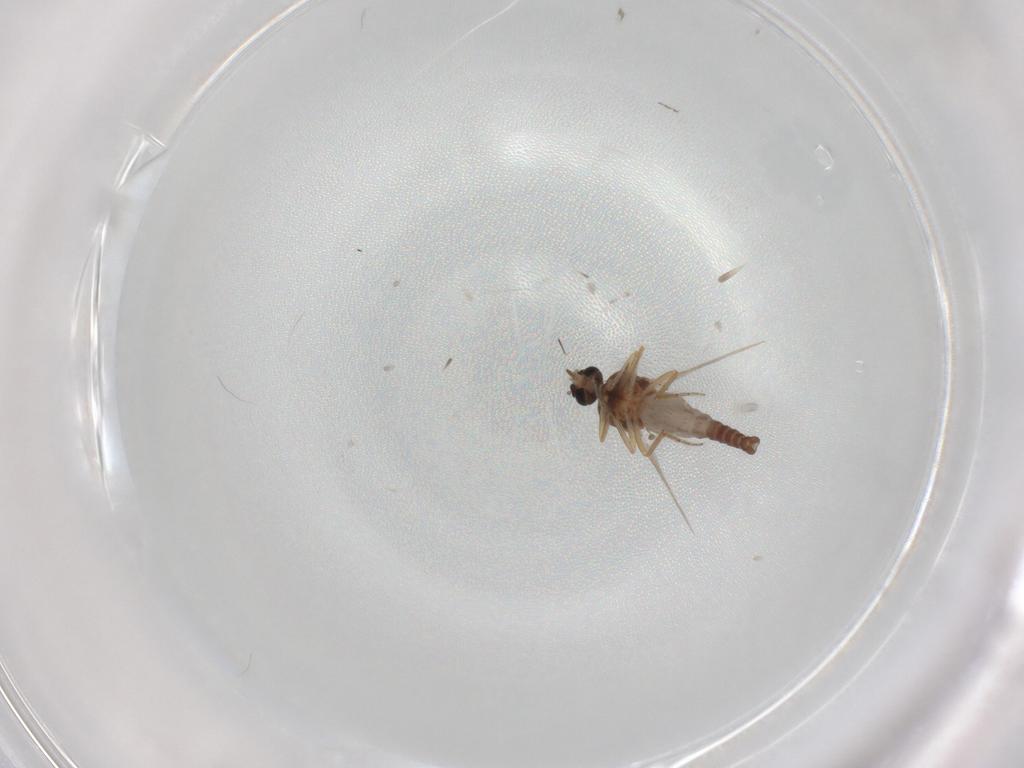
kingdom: Animalia
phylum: Arthropoda
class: Insecta
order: Diptera
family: Ceratopogonidae
